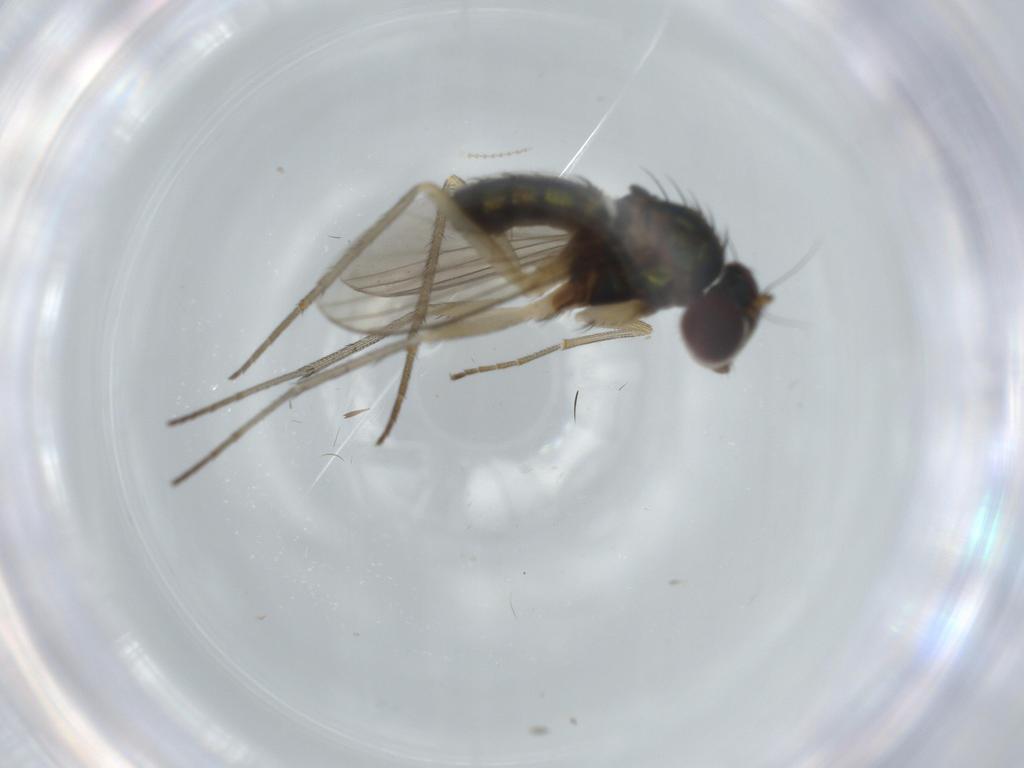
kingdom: Animalia
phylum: Arthropoda
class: Insecta
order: Diptera
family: Dolichopodidae
